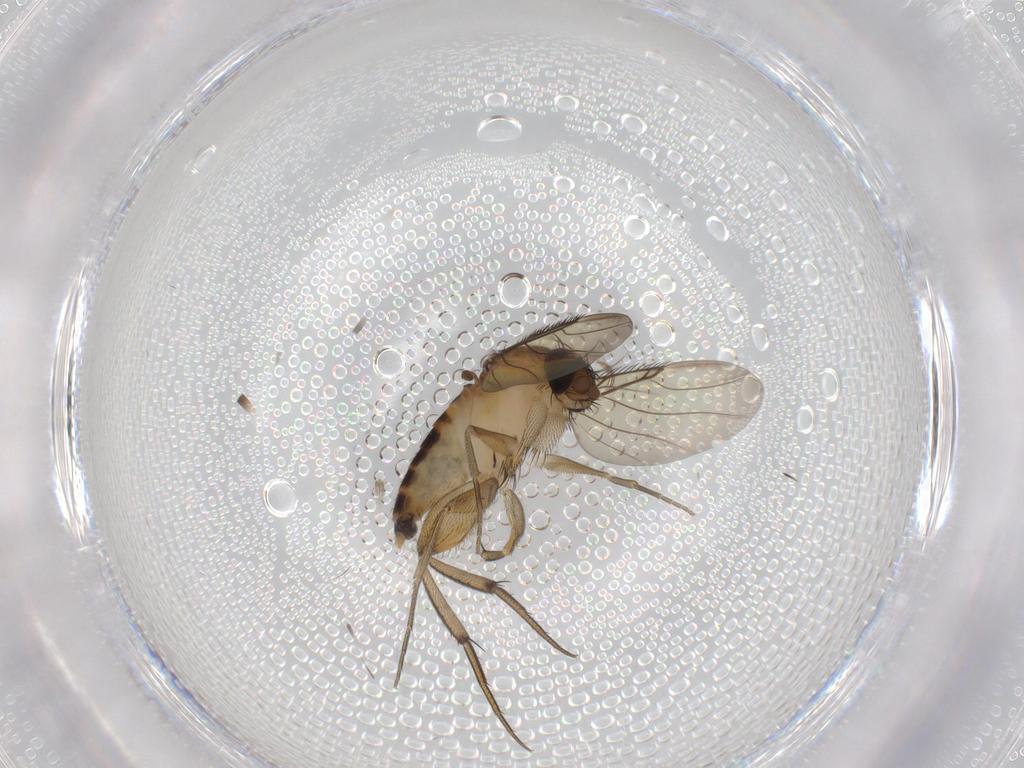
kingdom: Animalia
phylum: Arthropoda
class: Insecta
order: Diptera
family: Phoridae
